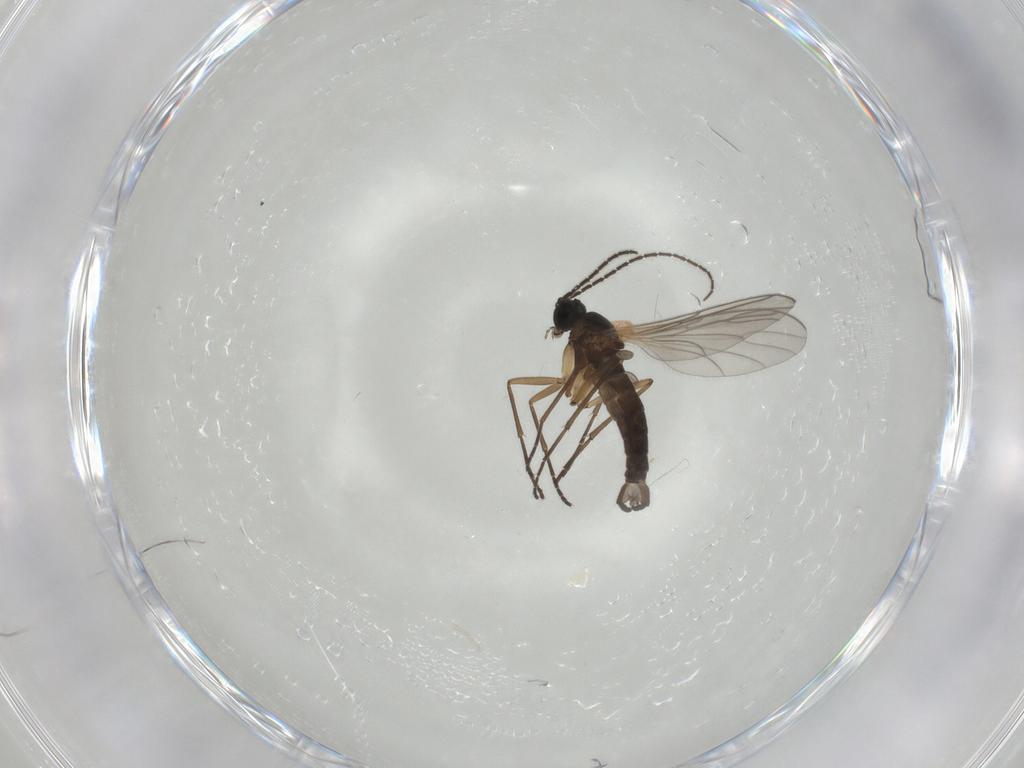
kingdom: Animalia
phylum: Arthropoda
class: Insecta
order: Diptera
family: Sciaridae
